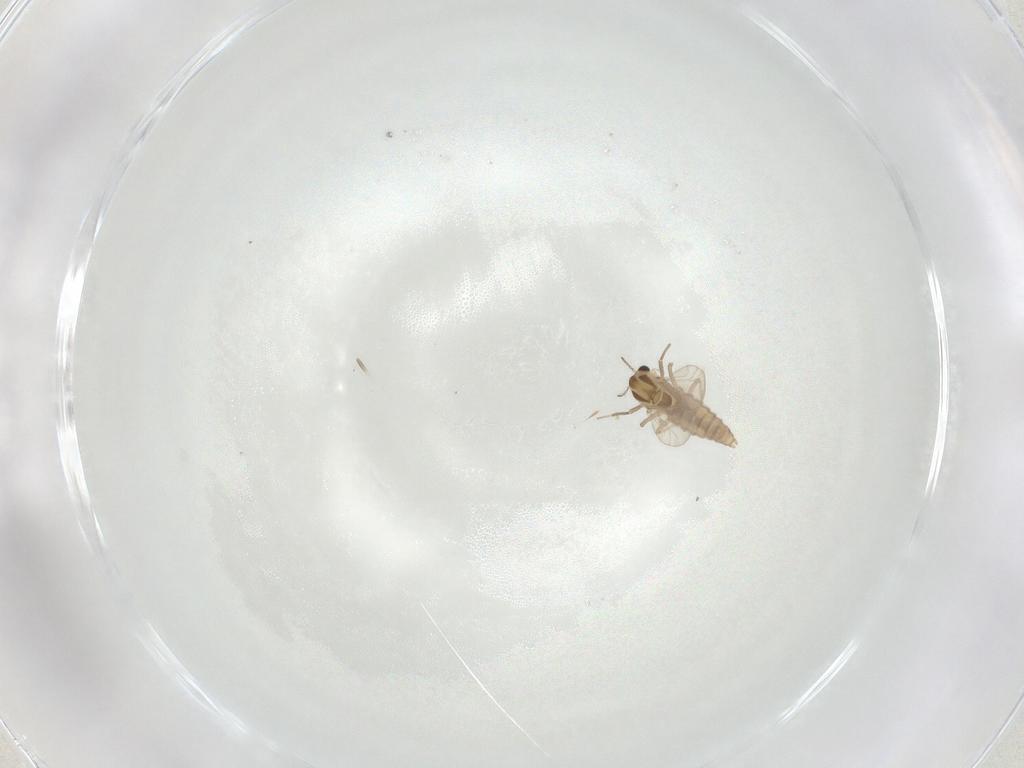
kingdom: Animalia
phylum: Arthropoda
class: Insecta
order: Diptera
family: Chironomidae
